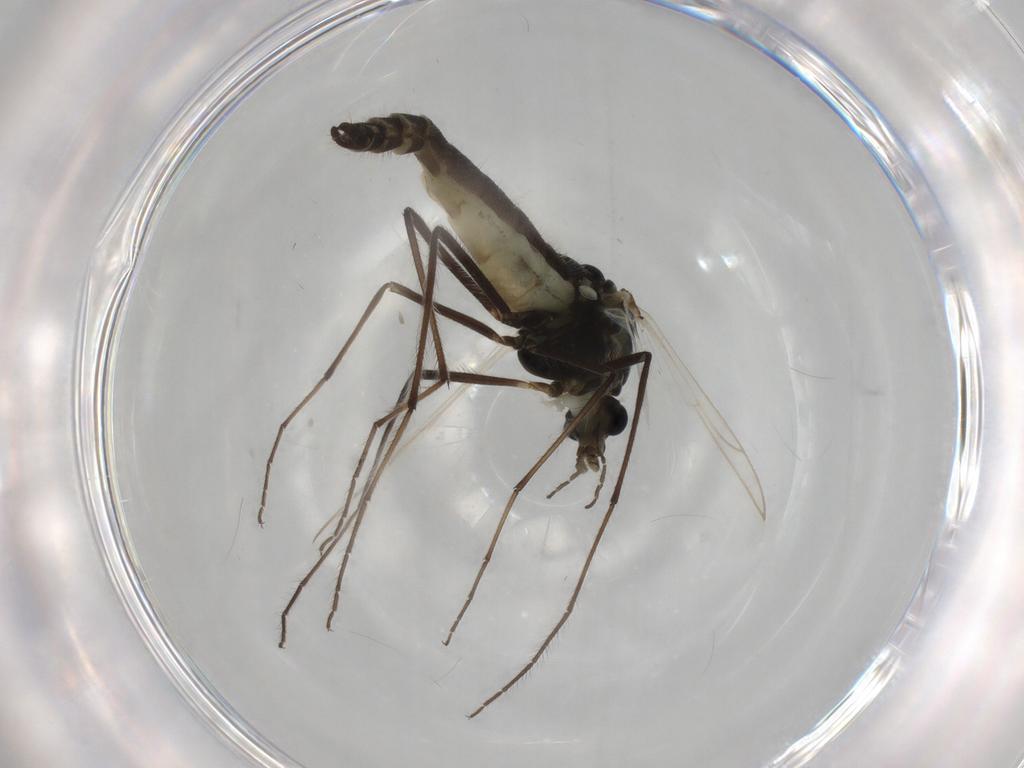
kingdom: Animalia
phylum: Arthropoda
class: Insecta
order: Diptera
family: Chironomidae
